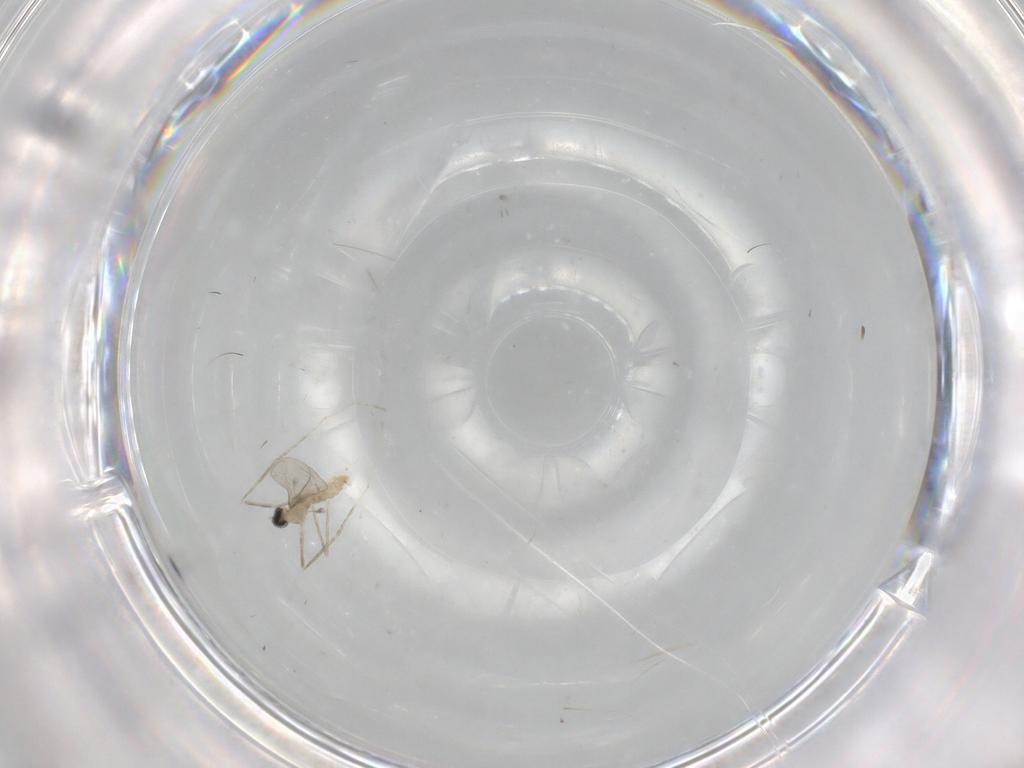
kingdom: Animalia
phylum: Arthropoda
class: Insecta
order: Diptera
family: Cecidomyiidae
